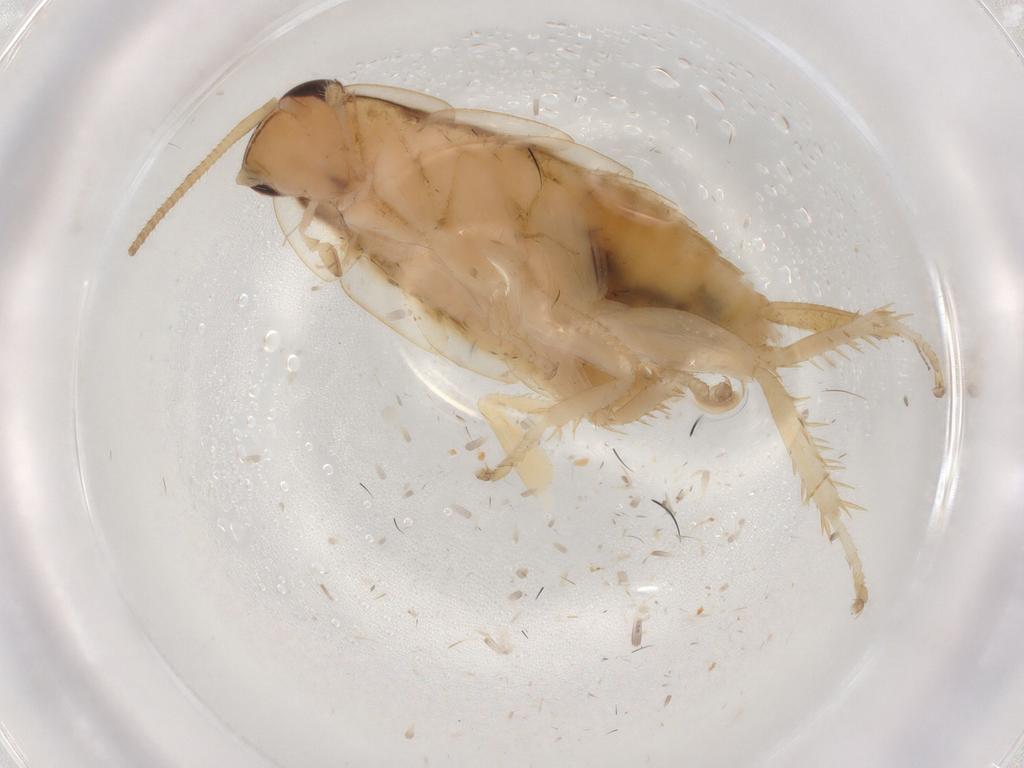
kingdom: Animalia
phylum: Arthropoda
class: Insecta
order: Blattodea
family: Ectobiidae
